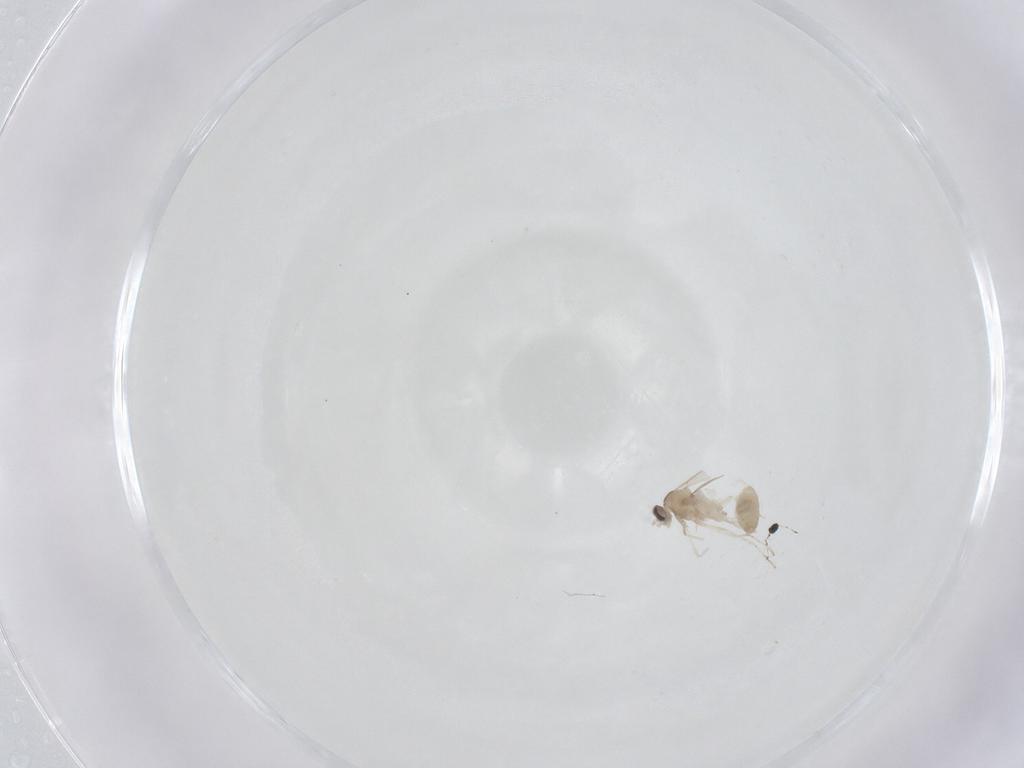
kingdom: Animalia
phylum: Arthropoda
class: Insecta
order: Diptera
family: Cecidomyiidae
